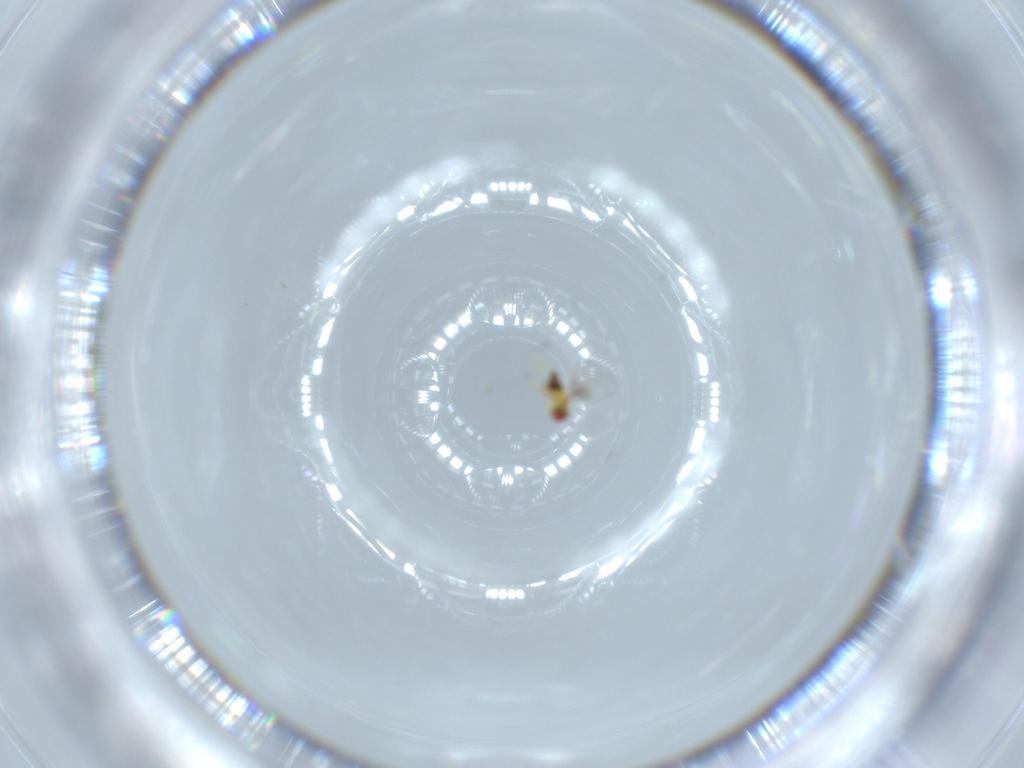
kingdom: Animalia
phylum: Arthropoda
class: Insecta
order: Hymenoptera
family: Trichogrammatidae
